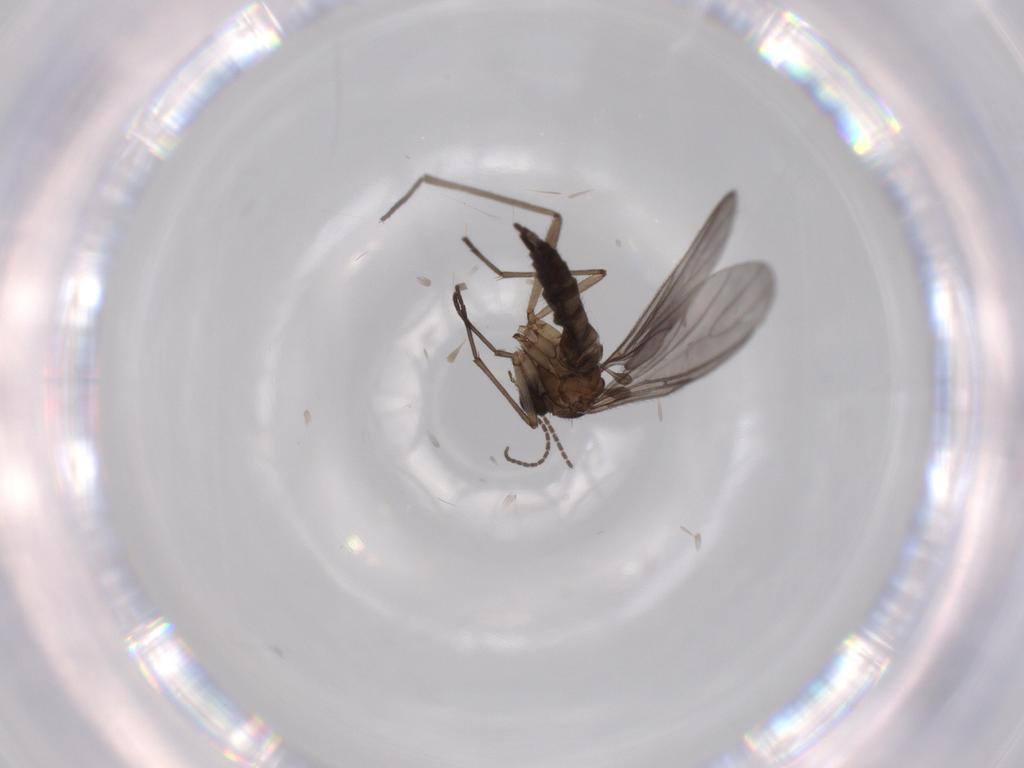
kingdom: Animalia
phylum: Arthropoda
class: Insecta
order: Diptera
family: Sciaridae
